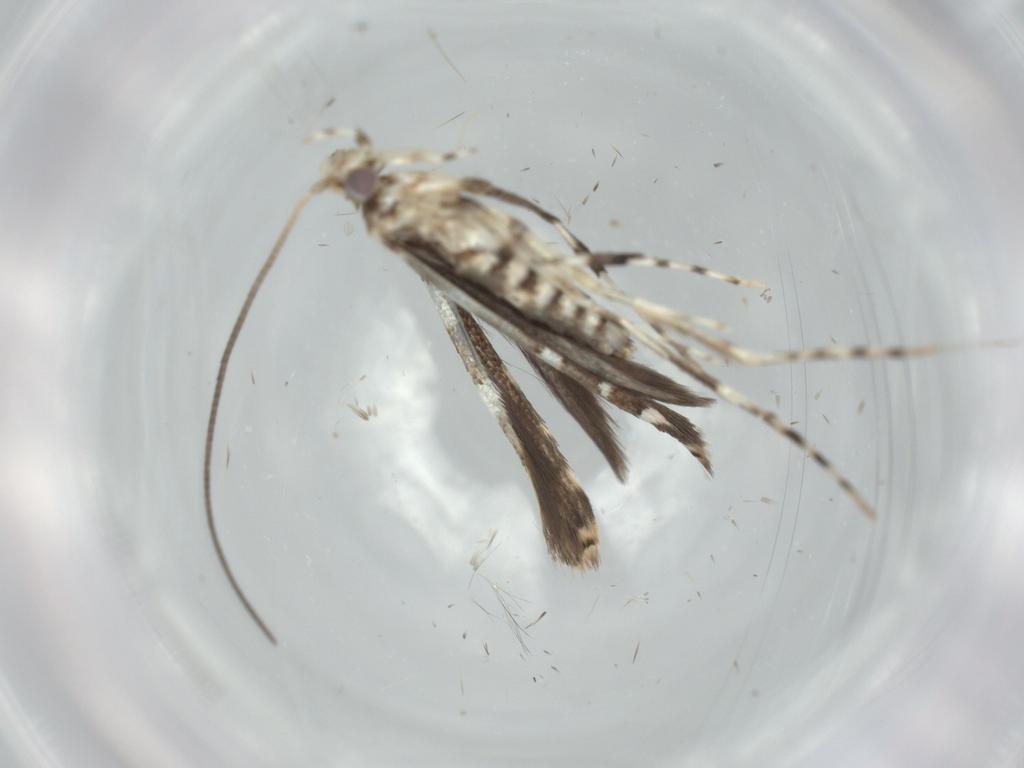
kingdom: Animalia
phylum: Arthropoda
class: Insecta
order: Lepidoptera
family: Gracillariidae
